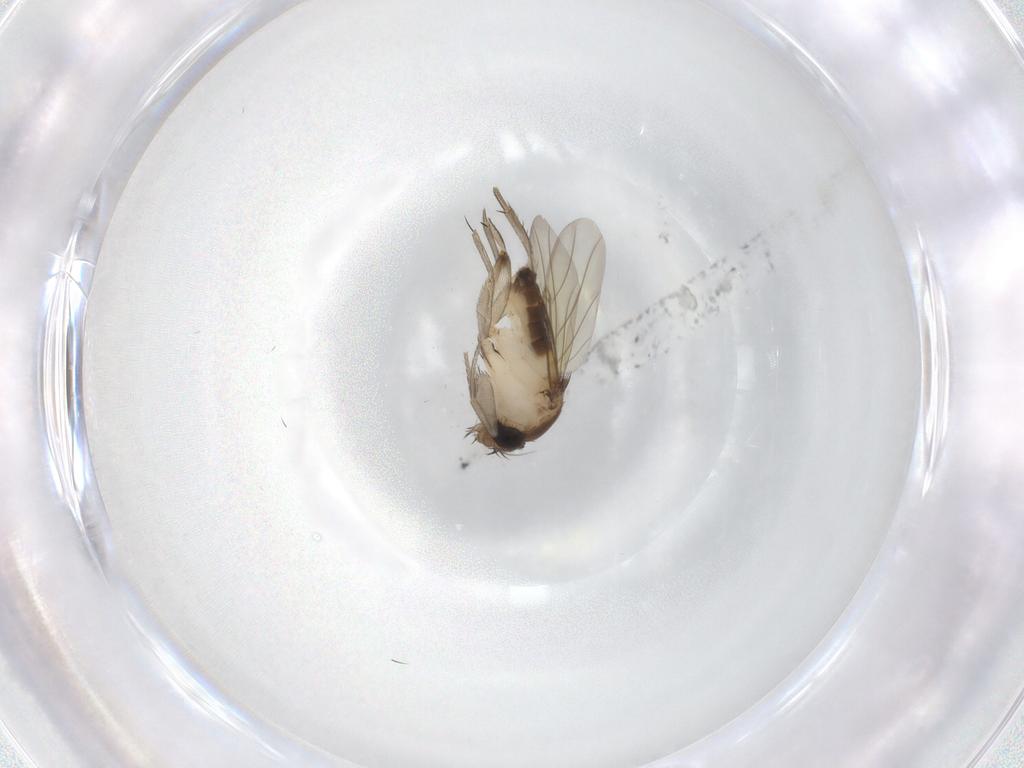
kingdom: Animalia
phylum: Arthropoda
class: Insecta
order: Diptera
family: Phoridae
